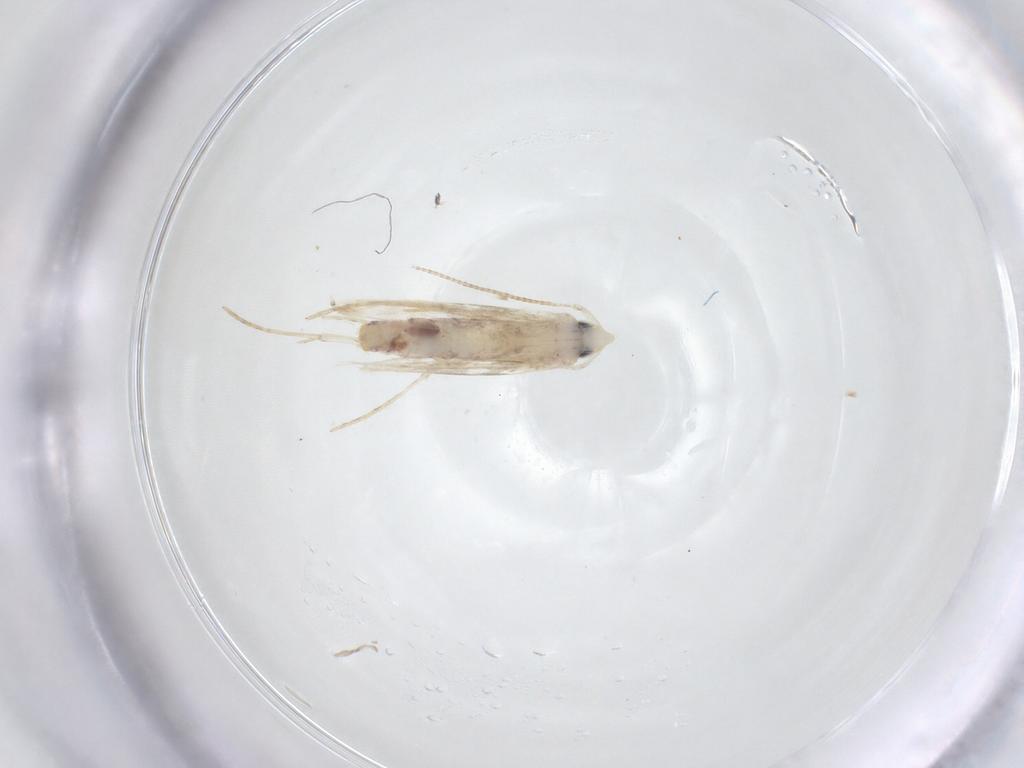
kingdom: Animalia
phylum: Arthropoda
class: Insecta
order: Lepidoptera
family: Tineidae
